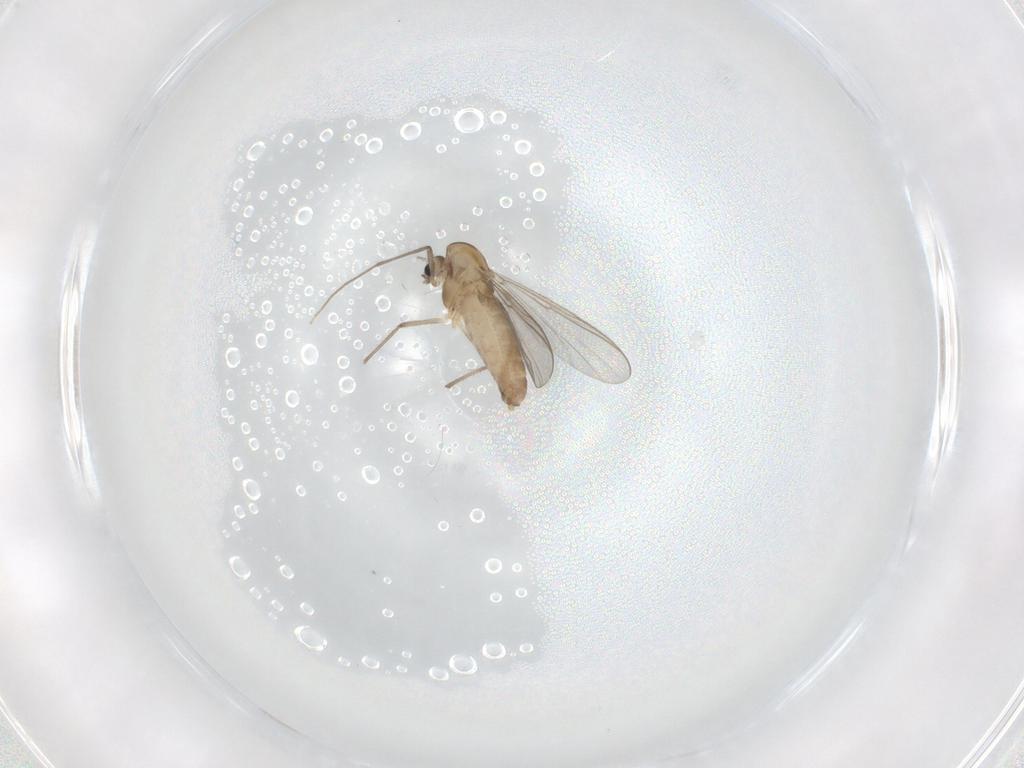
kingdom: Animalia
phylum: Arthropoda
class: Insecta
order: Diptera
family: Chironomidae
